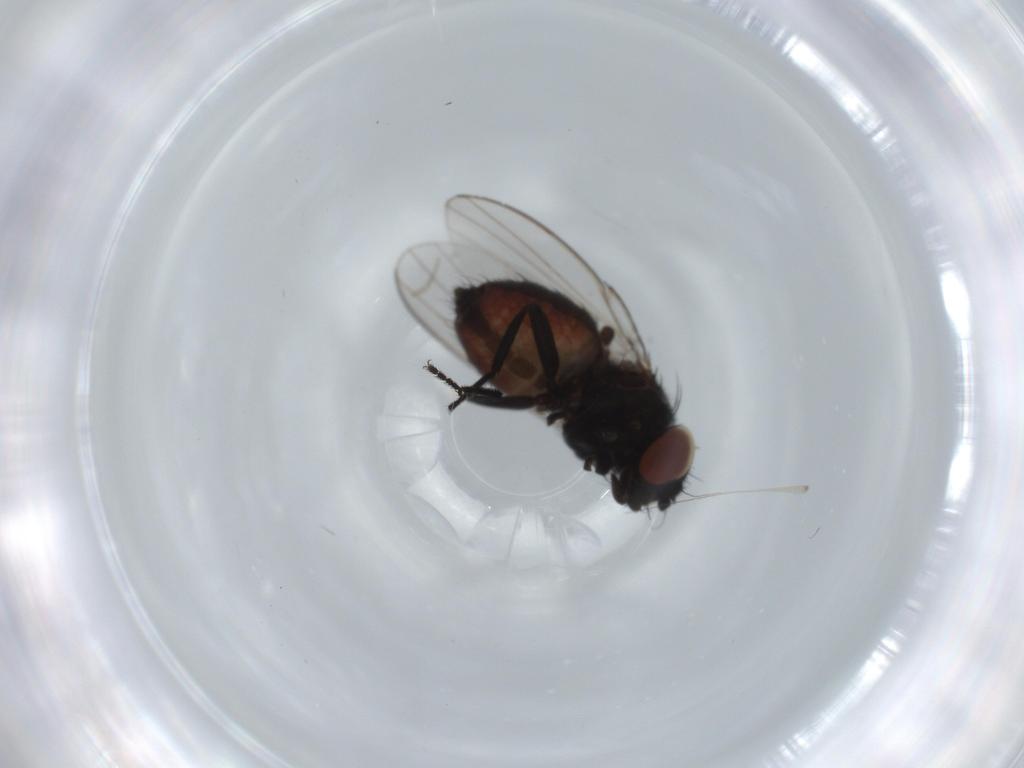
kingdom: Animalia
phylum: Arthropoda
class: Insecta
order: Diptera
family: Milichiidae
